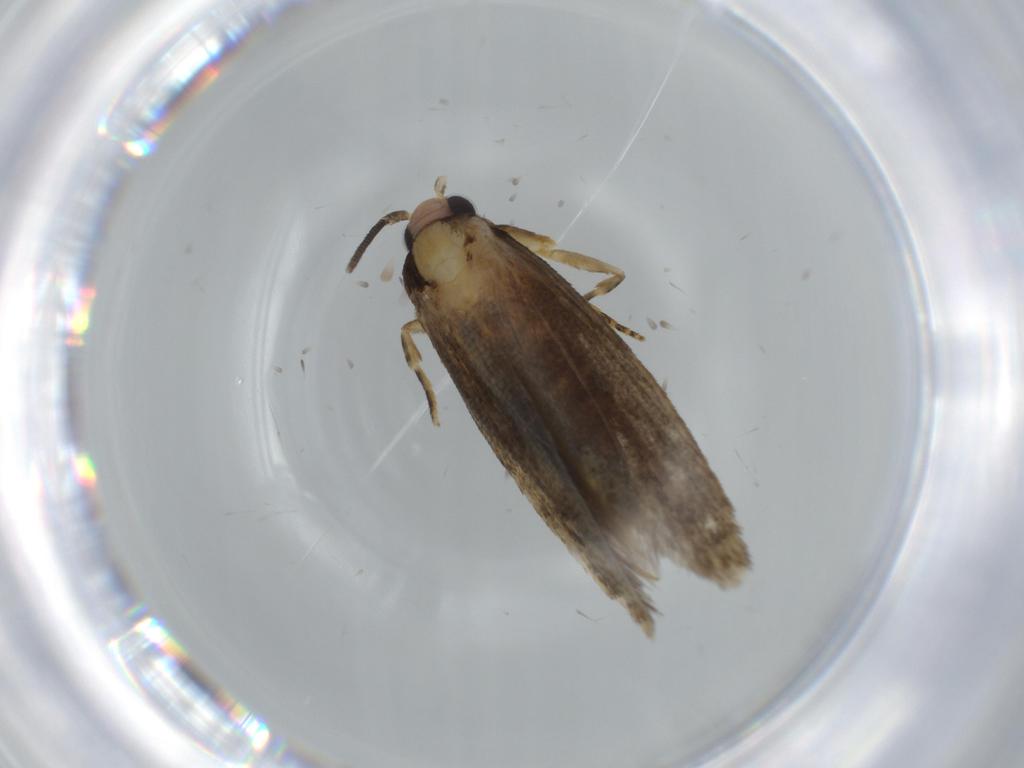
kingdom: Animalia
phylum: Arthropoda
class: Insecta
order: Lepidoptera
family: Tineidae
